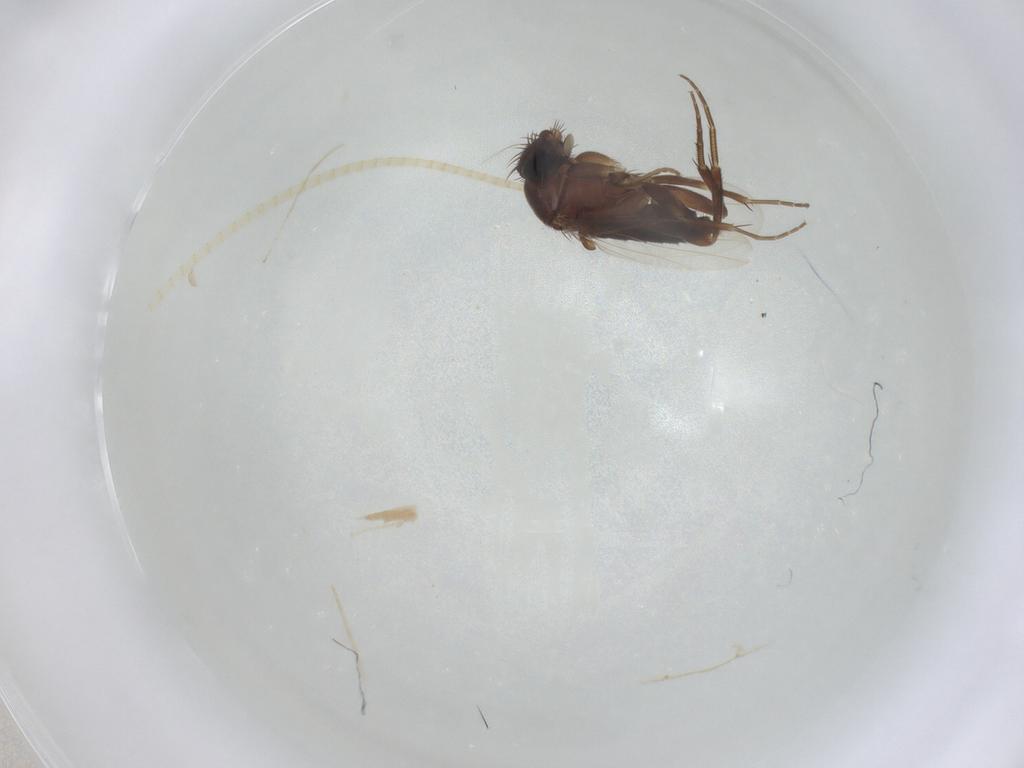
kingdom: Animalia
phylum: Arthropoda
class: Insecta
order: Diptera
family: Phoridae
